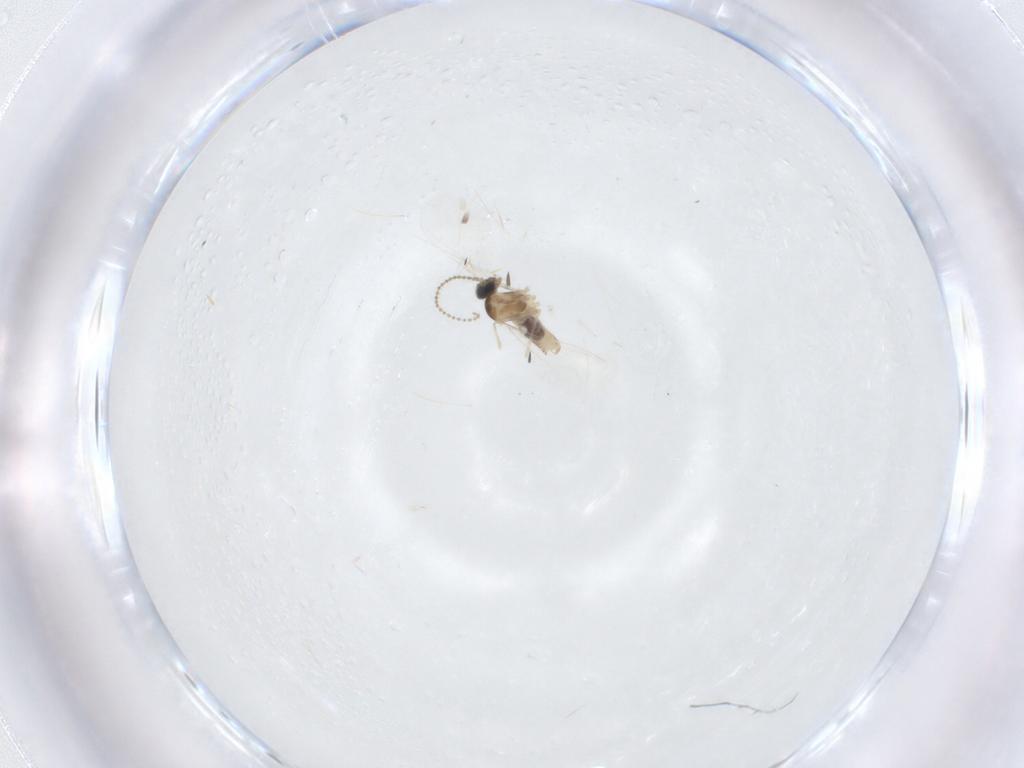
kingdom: Animalia
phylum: Arthropoda
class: Insecta
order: Diptera
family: Cecidomyiidae
